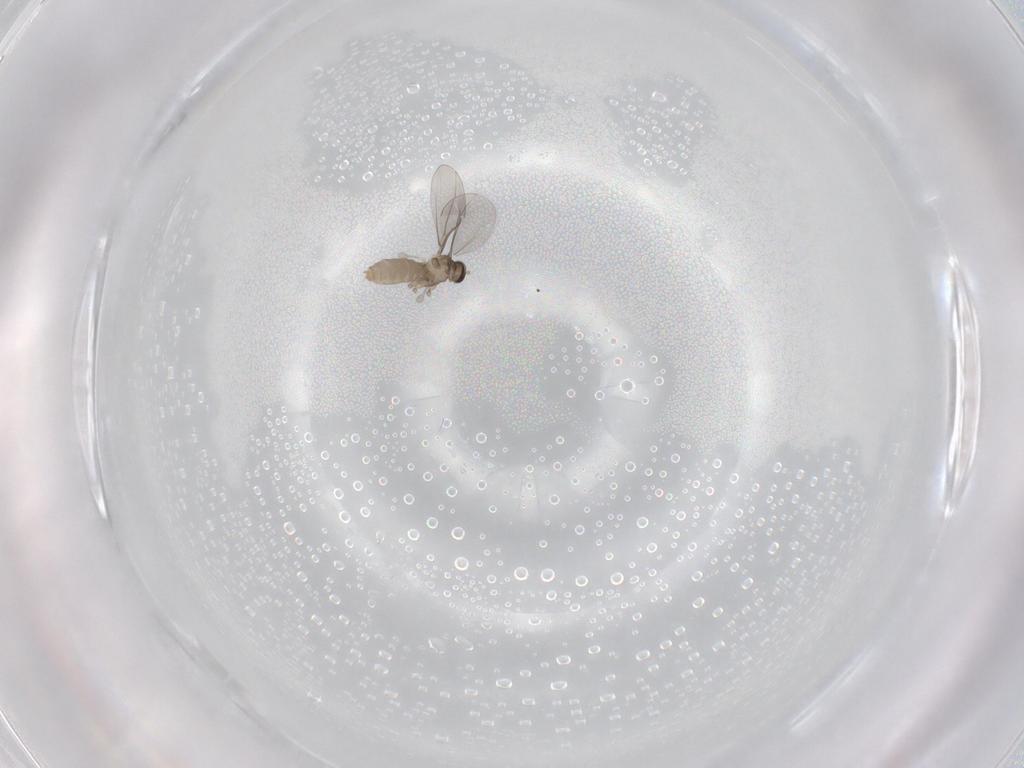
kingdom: Animalia
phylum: Arthropoda
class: Insecta
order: Diptera
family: Cecidomyiidae
